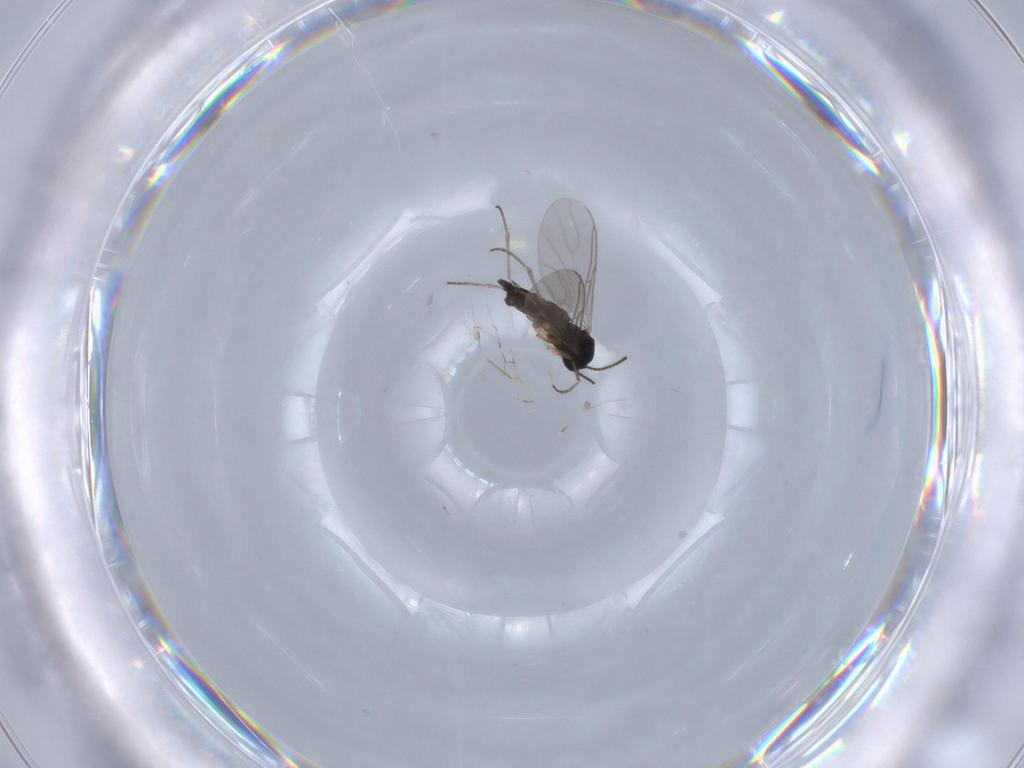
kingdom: Animalia
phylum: Arthropoda
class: Insecta
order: Diptera
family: Sciaridae
